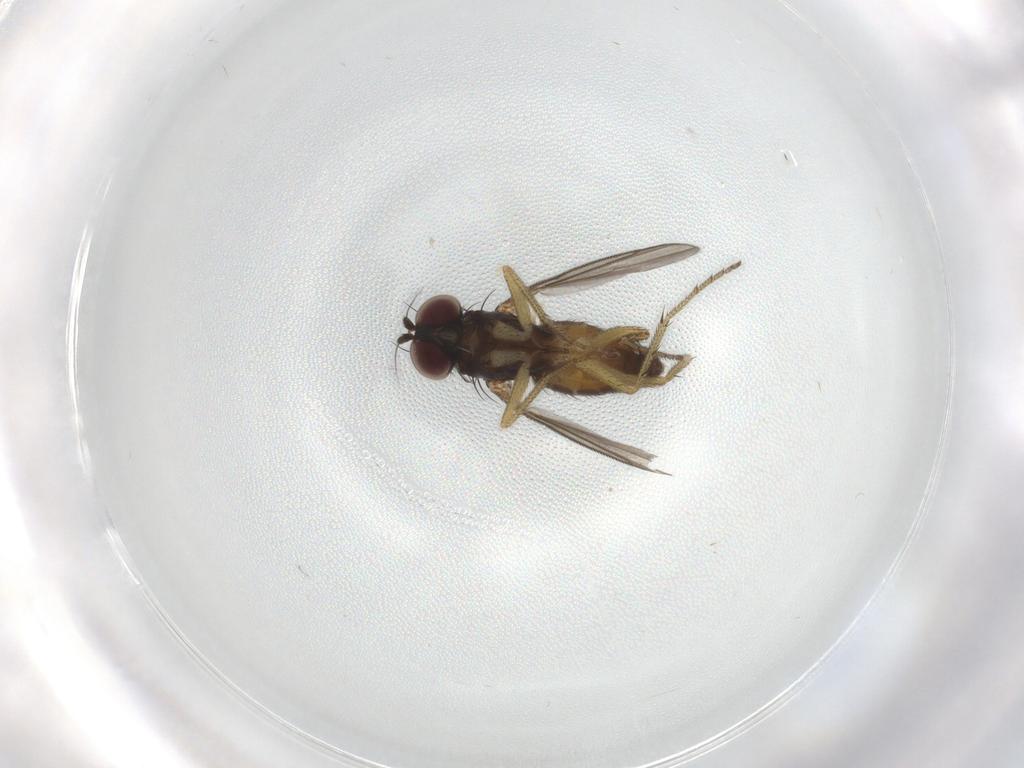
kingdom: Animalia
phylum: Arthropoda
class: Insecta
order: Diptera
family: Dolichopodidae
